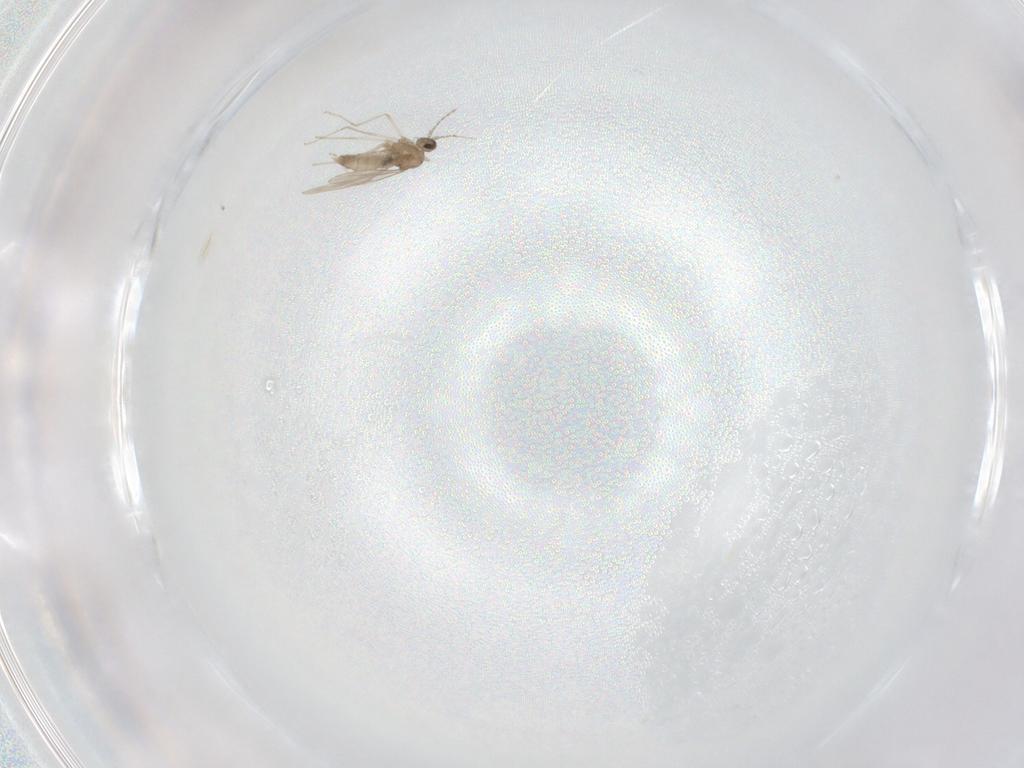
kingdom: Animalia
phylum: Arthropoda
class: Insecta
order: Diptera
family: Cecidomyiidae
